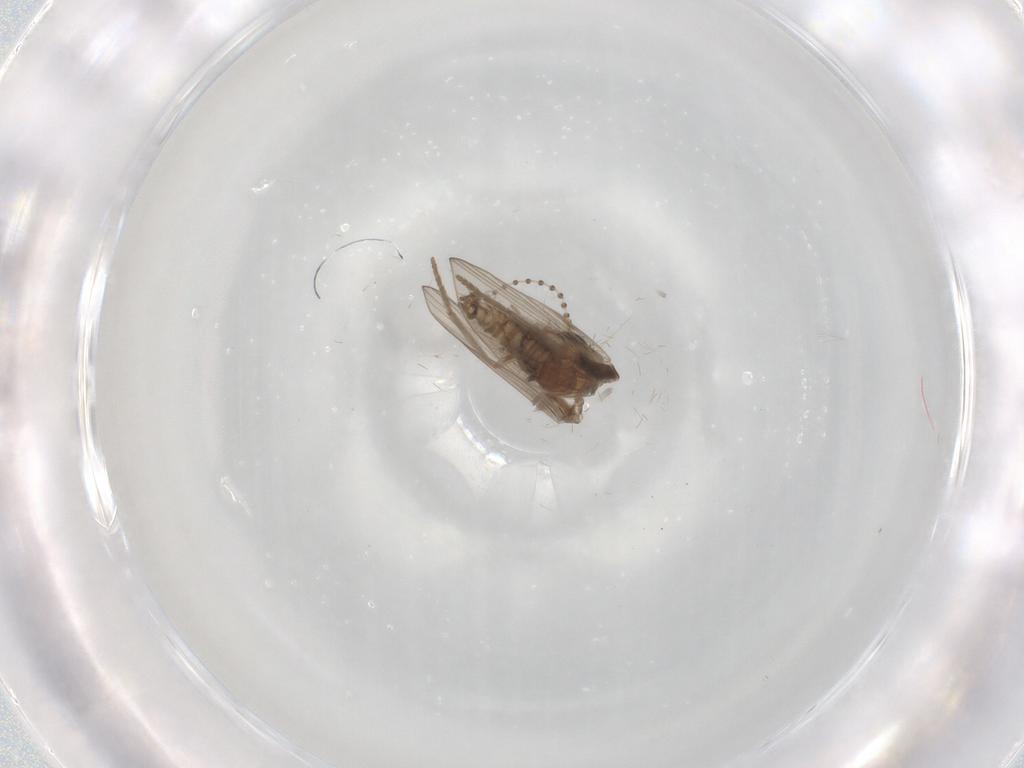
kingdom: Animalia
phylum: Arthropoda
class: Insecta
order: Diptera
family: Psychodidae
